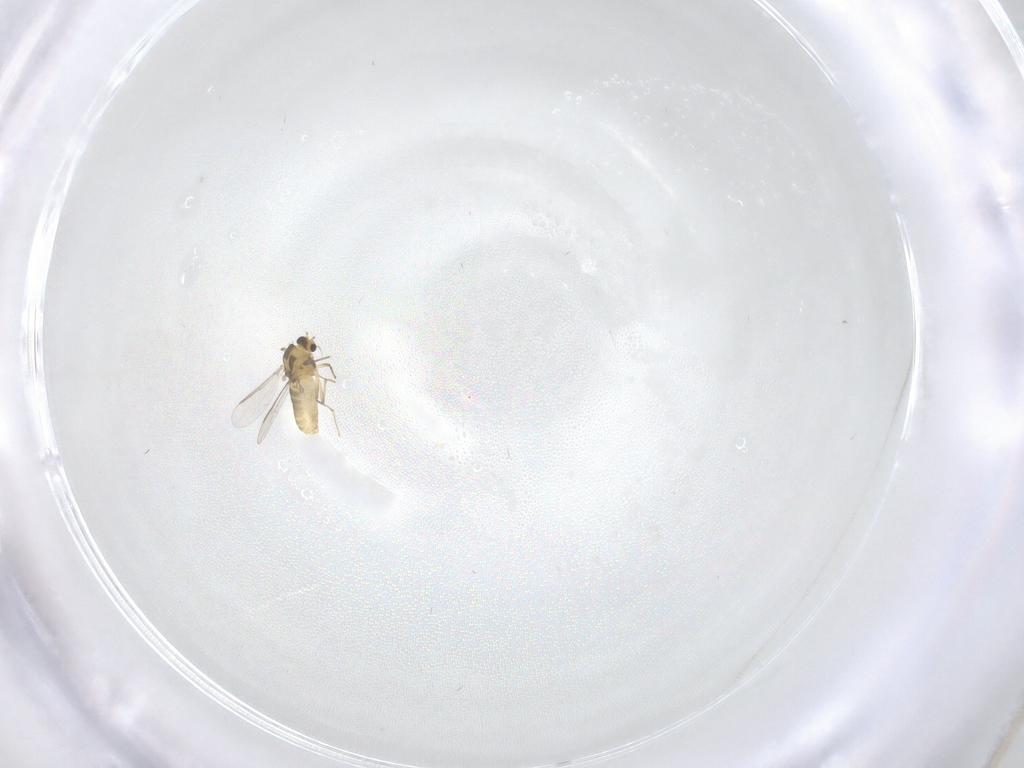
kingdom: Animalia
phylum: Arthropoda
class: Insecta
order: Diptera
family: Chironomidae
